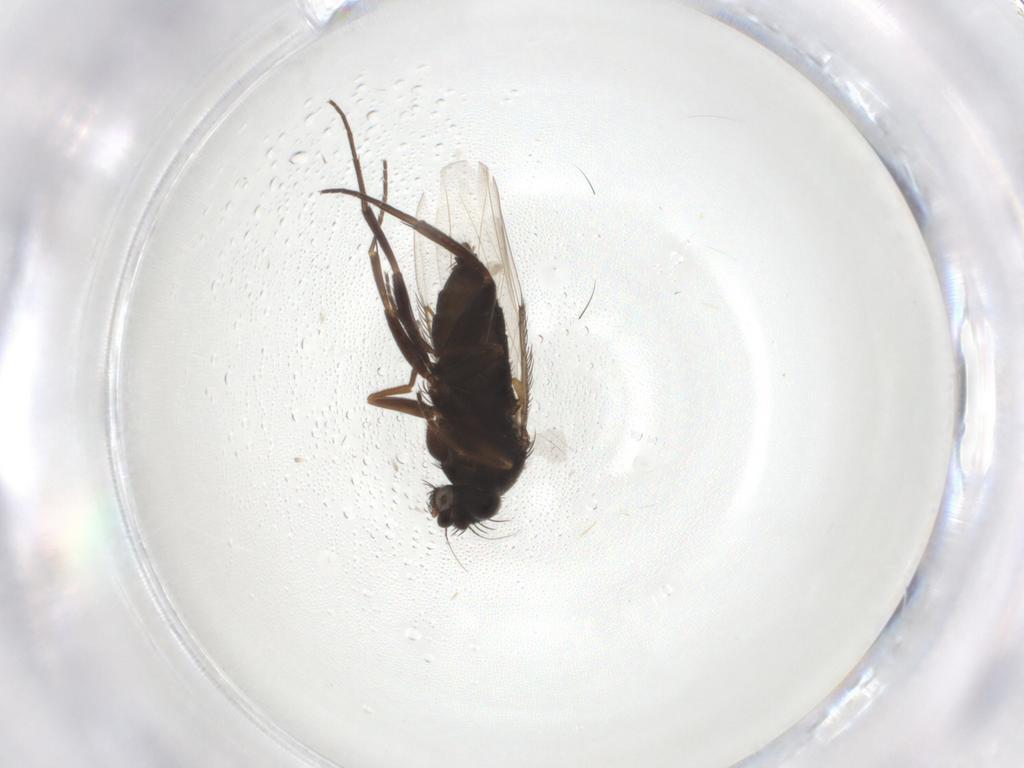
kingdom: Animalia
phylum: Arthropoda
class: Insecta
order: Diptera
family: Phoridae
